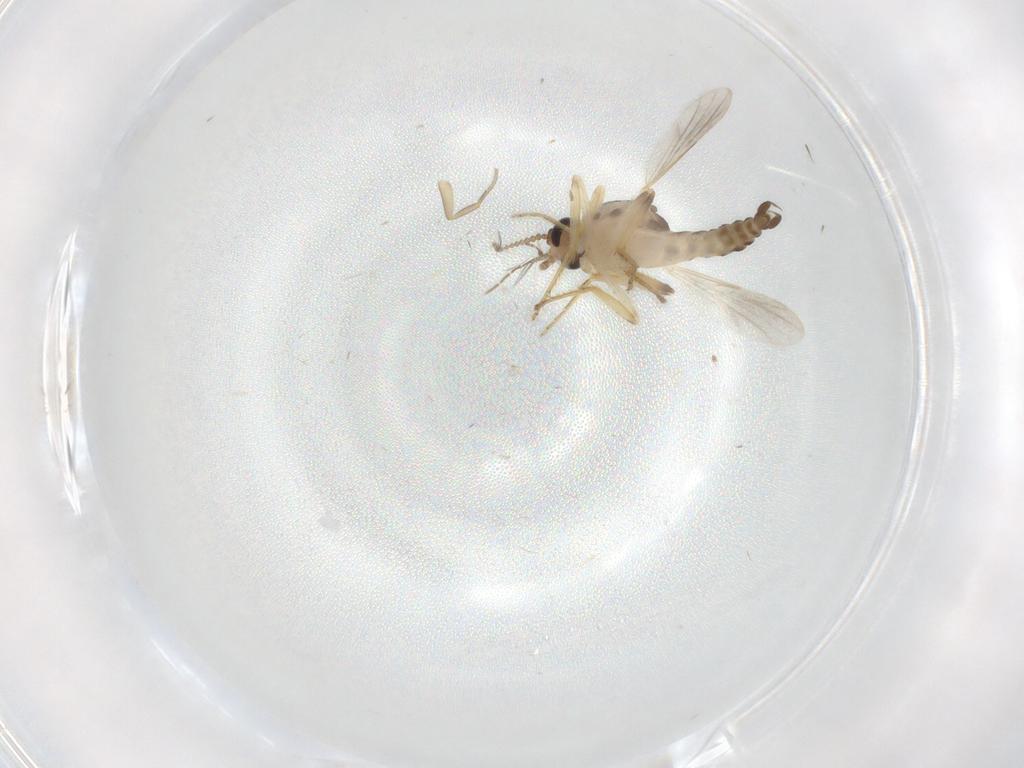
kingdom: Animalia
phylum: Arthropoda
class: Insecta
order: Diptera
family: Ceratopogonidae
